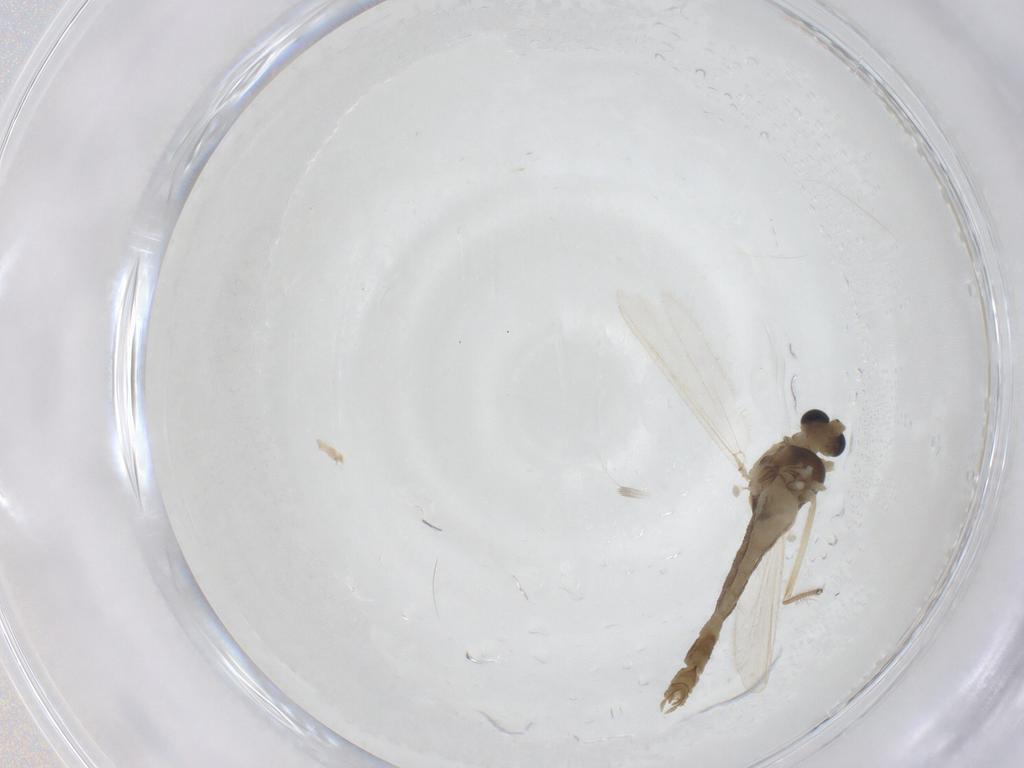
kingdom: Animalia
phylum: Arthropoda
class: Insecta
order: Diptera
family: Chironomidae
